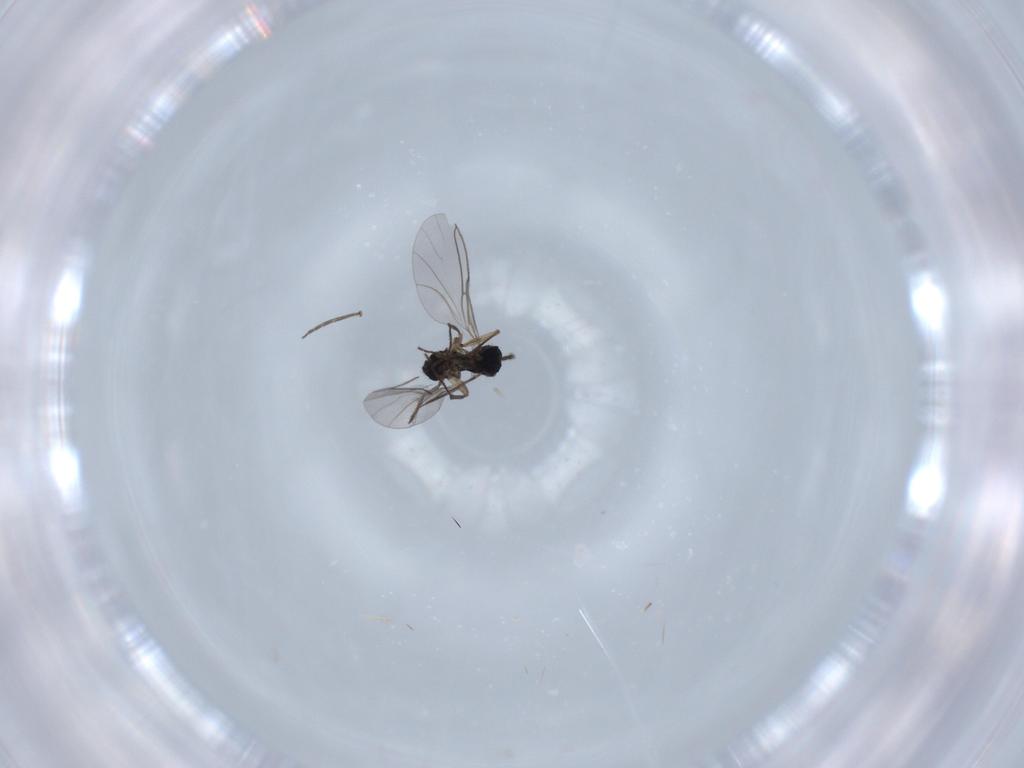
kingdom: Animalia
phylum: Arthropoda
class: Insecta
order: Diptera
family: Sciaridae
